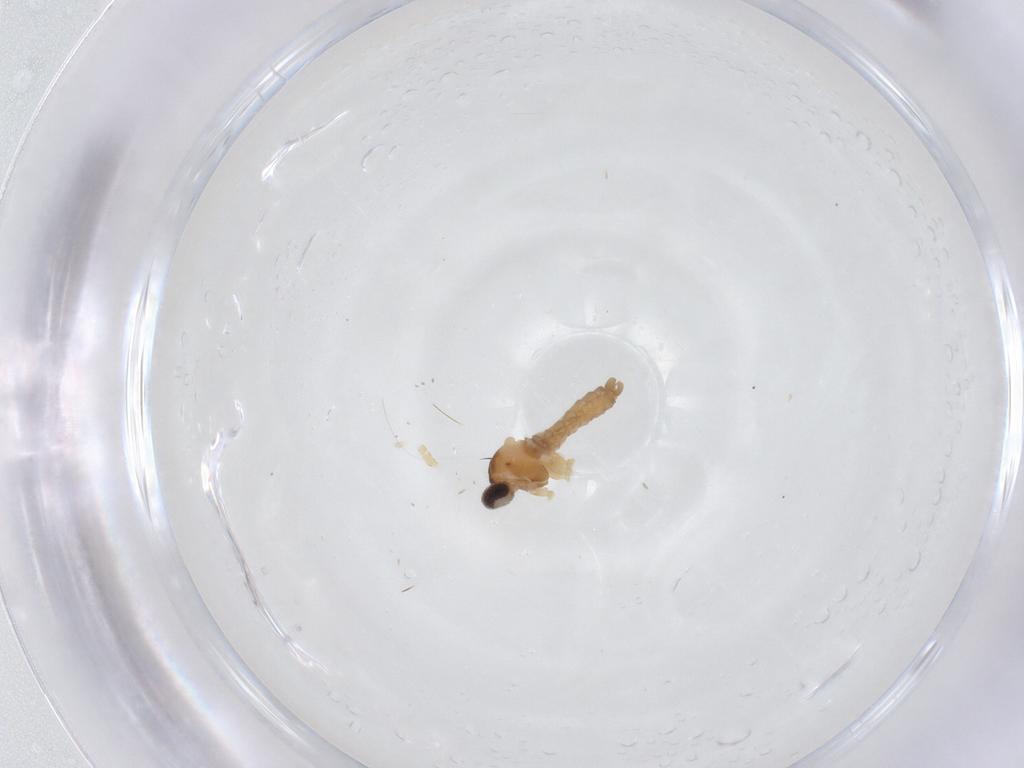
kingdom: Animalia
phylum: Arthropoda
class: Insecta
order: Diptera
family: Cecidomyiidae
